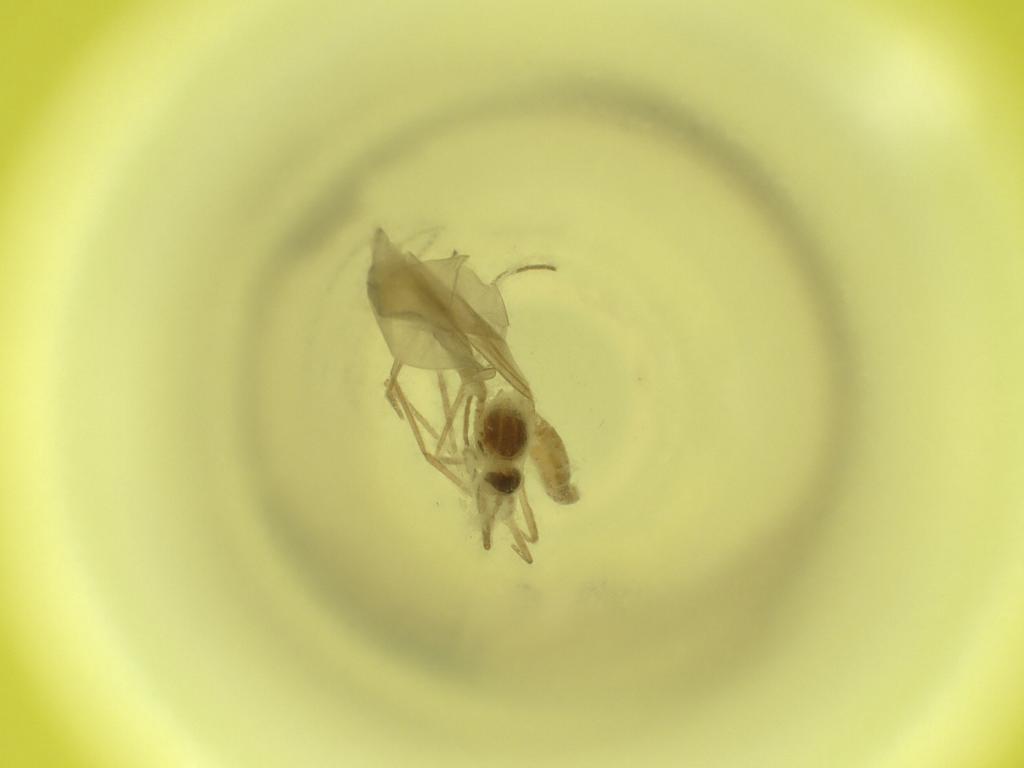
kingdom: Animalia
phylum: Arthropoda
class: Insecta
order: Diptera
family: Cecidomyiidae
